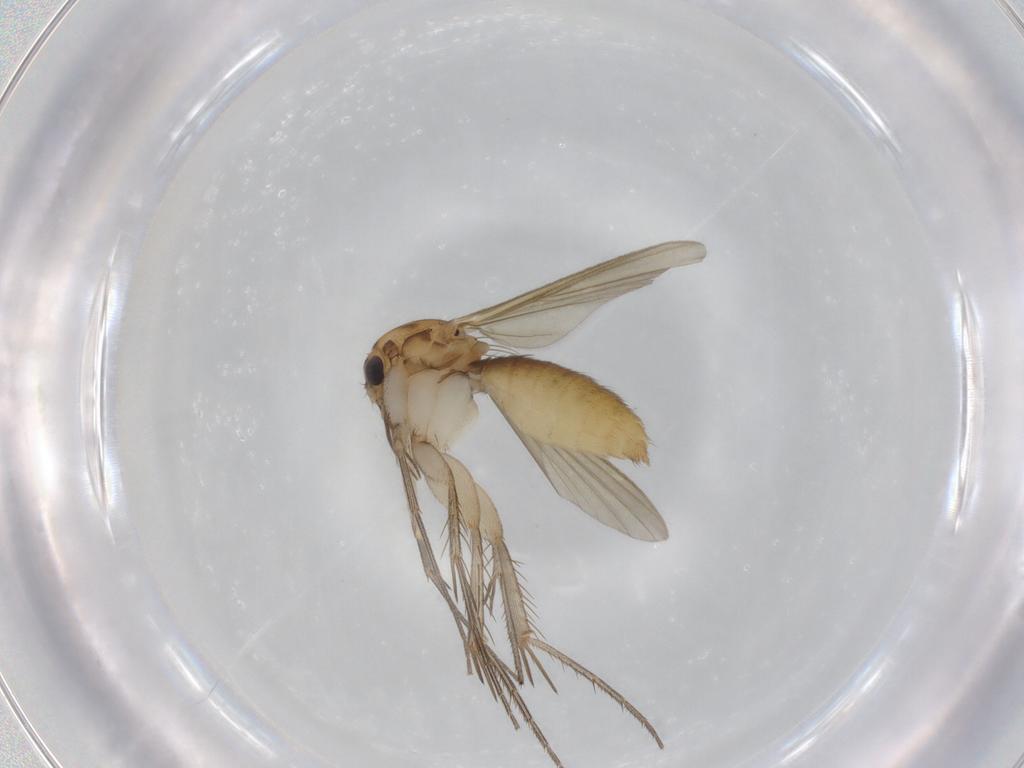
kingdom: Animalia
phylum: Arthropoda
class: Insecta
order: Diptera
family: Mycetophilidae
